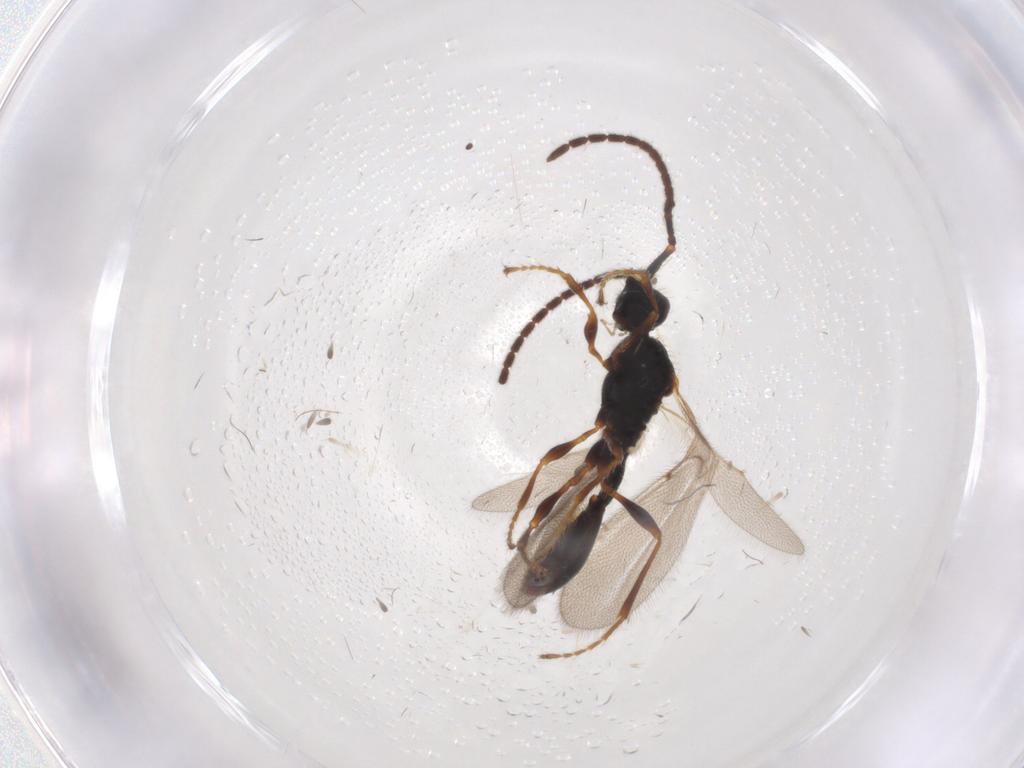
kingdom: Animalia
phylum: Arthropoda
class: Insecta
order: Hymenoptera
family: Diapriidae
